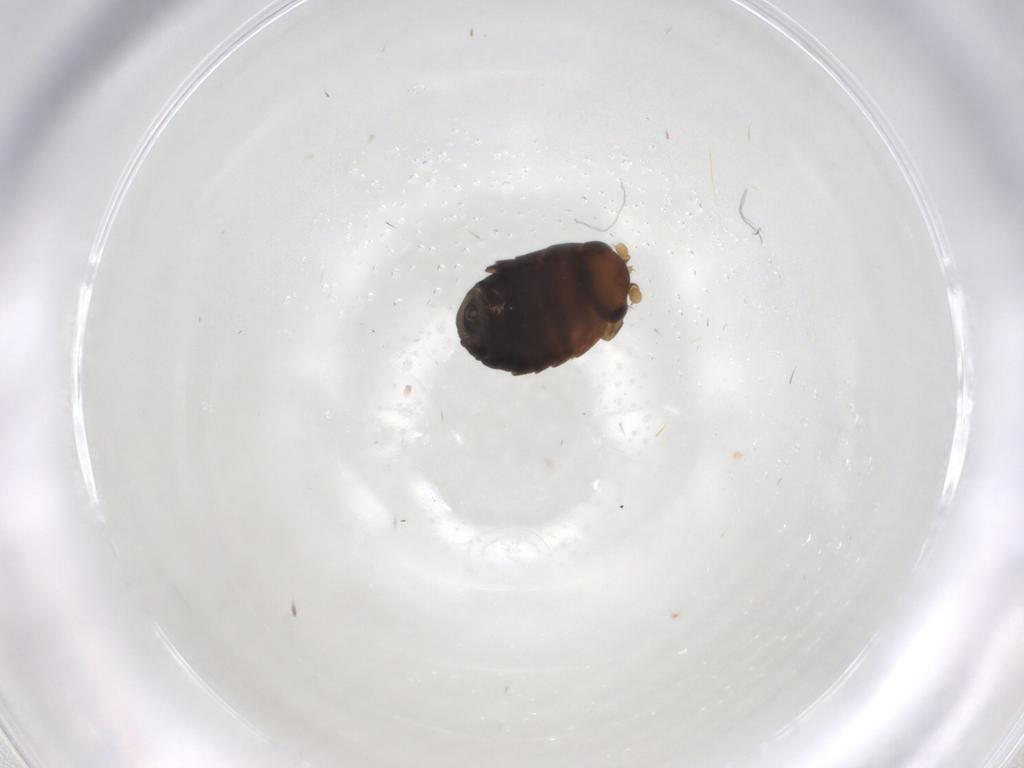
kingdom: Animalia
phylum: Arthropoda
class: Insecta
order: Diptera
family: Phoridae
